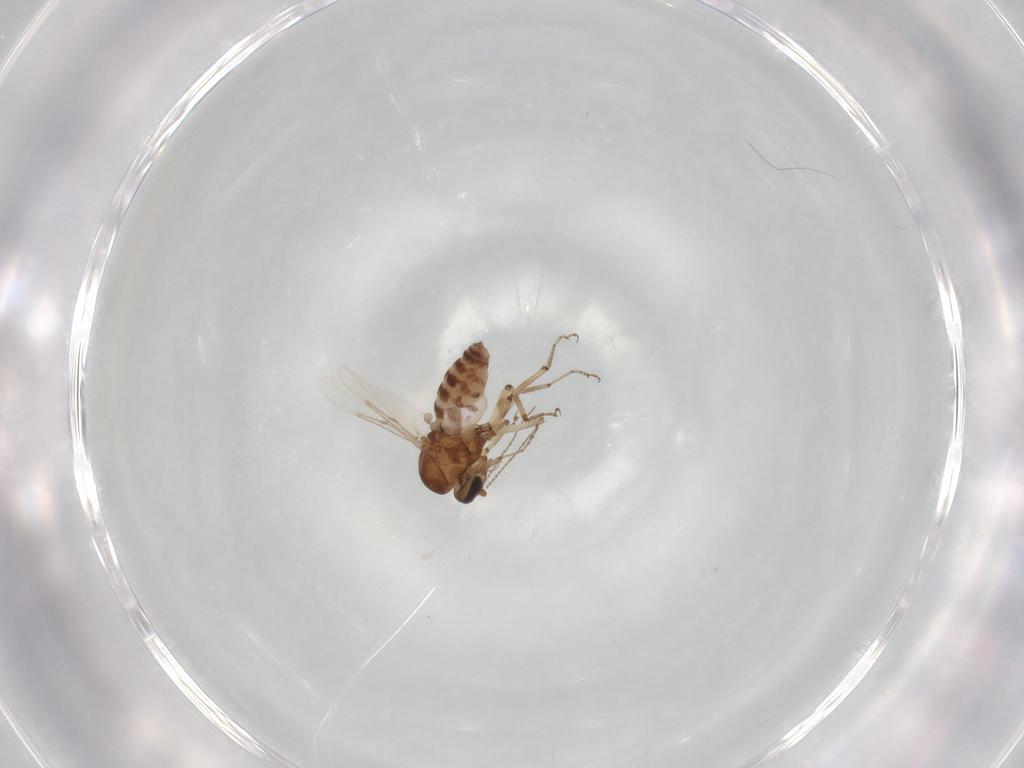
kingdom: Animalia
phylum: Arthropoda
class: Insecta
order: Diptera
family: Ceratopogonidae
